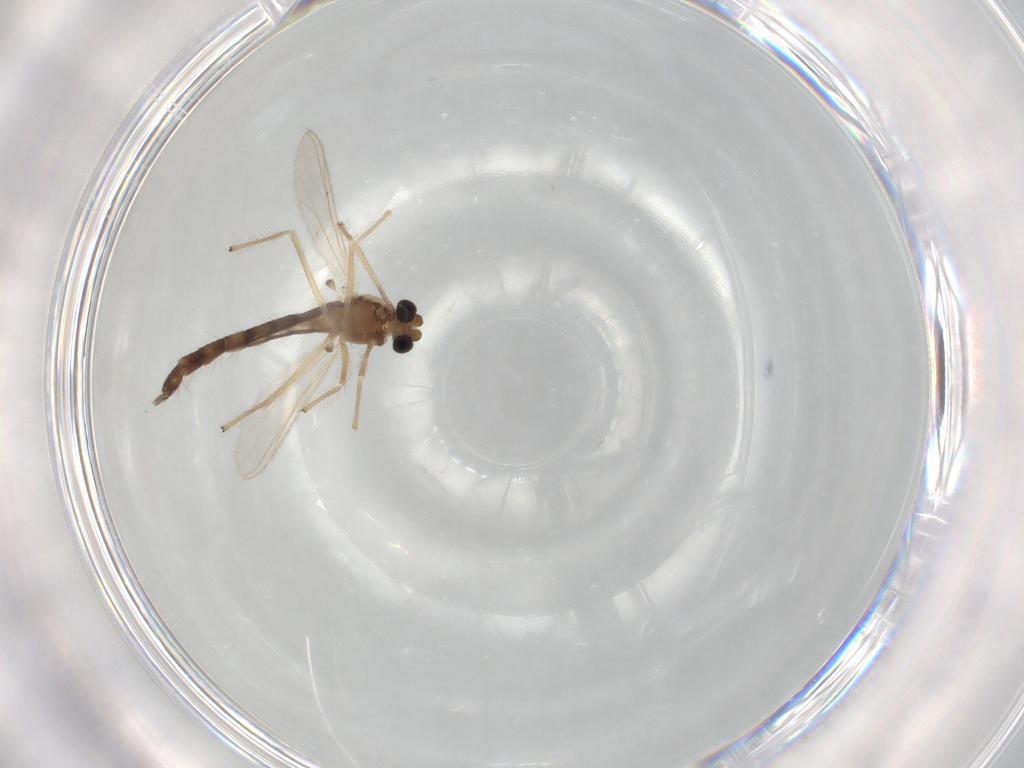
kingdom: Animalia
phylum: Arthropoda
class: Insecta
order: Diptera
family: Chironomidae
